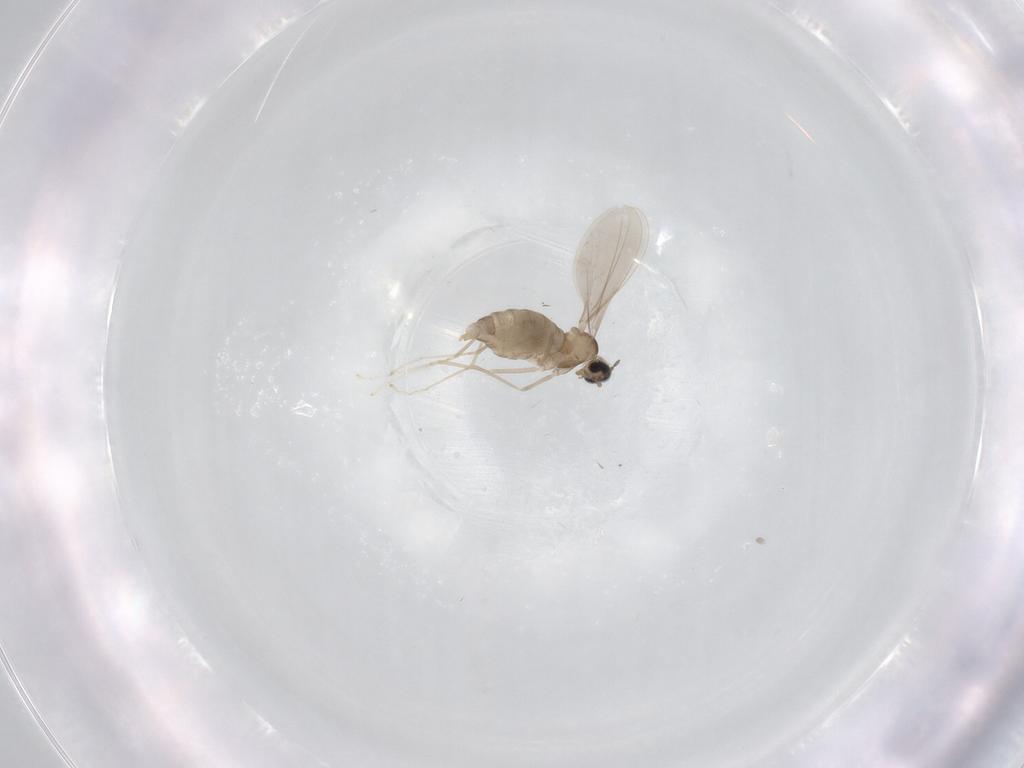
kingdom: Animalia
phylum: Arthropoda
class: Insecta
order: Diptera
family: Cecidomyiidae
